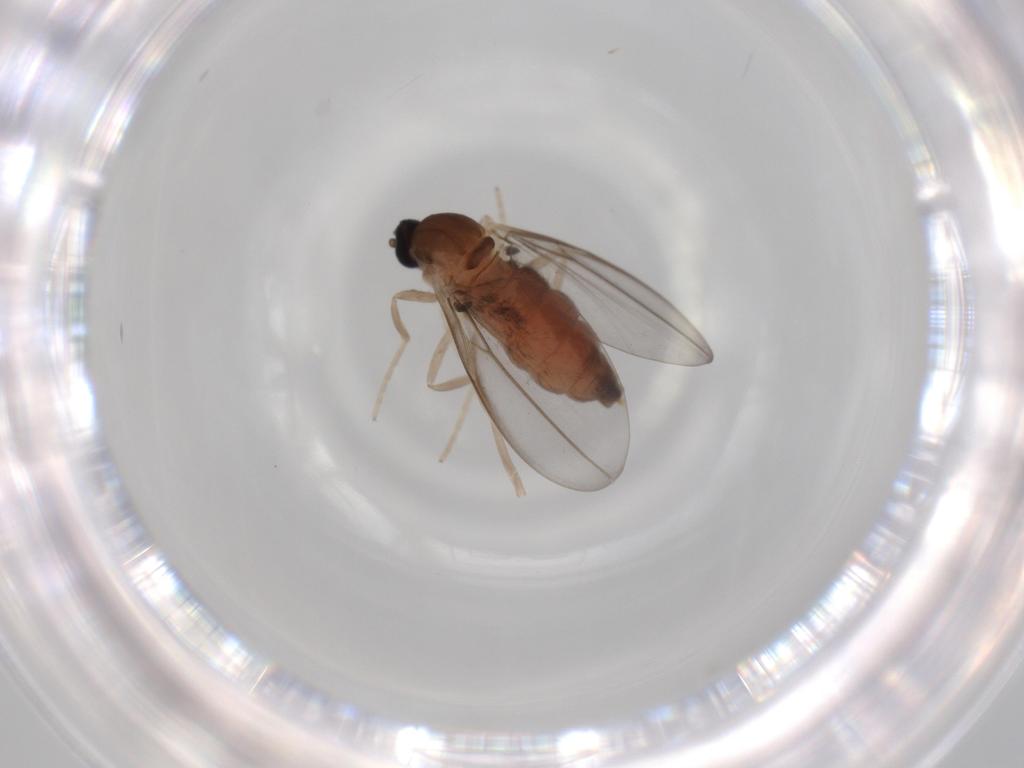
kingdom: Animalia
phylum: Arthropoda
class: Insecta
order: Diptera
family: Cecidomyiidae
